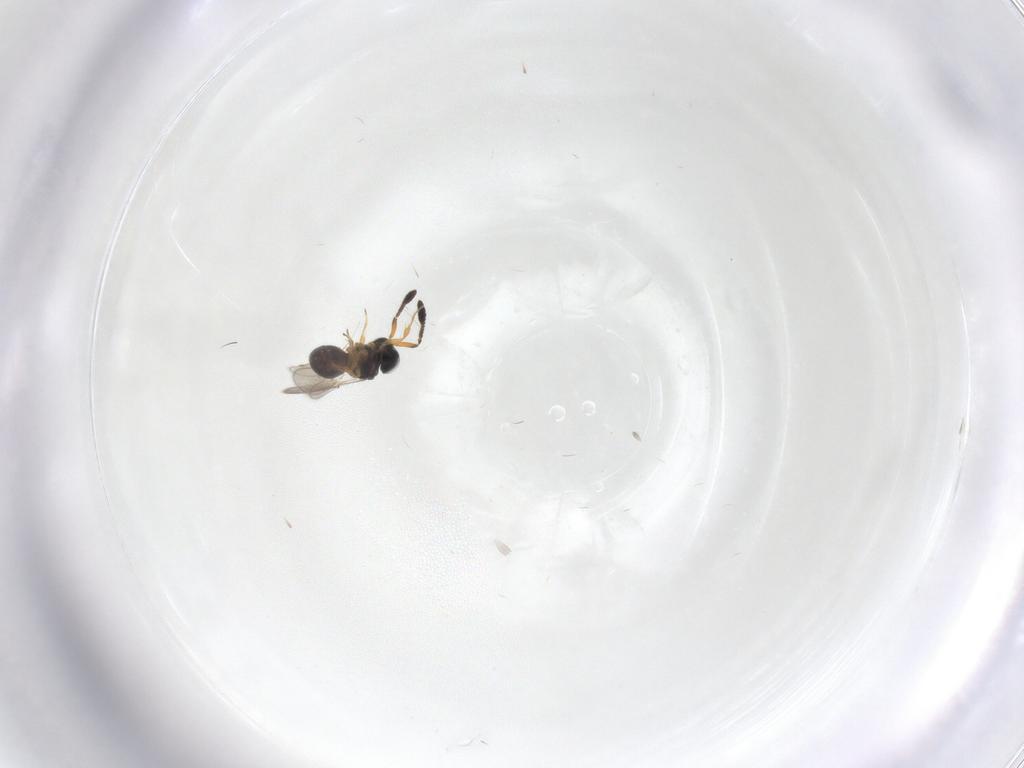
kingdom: Animalia
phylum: Arthropoda
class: Insecta
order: Hymenoptera
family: Scelionidae
